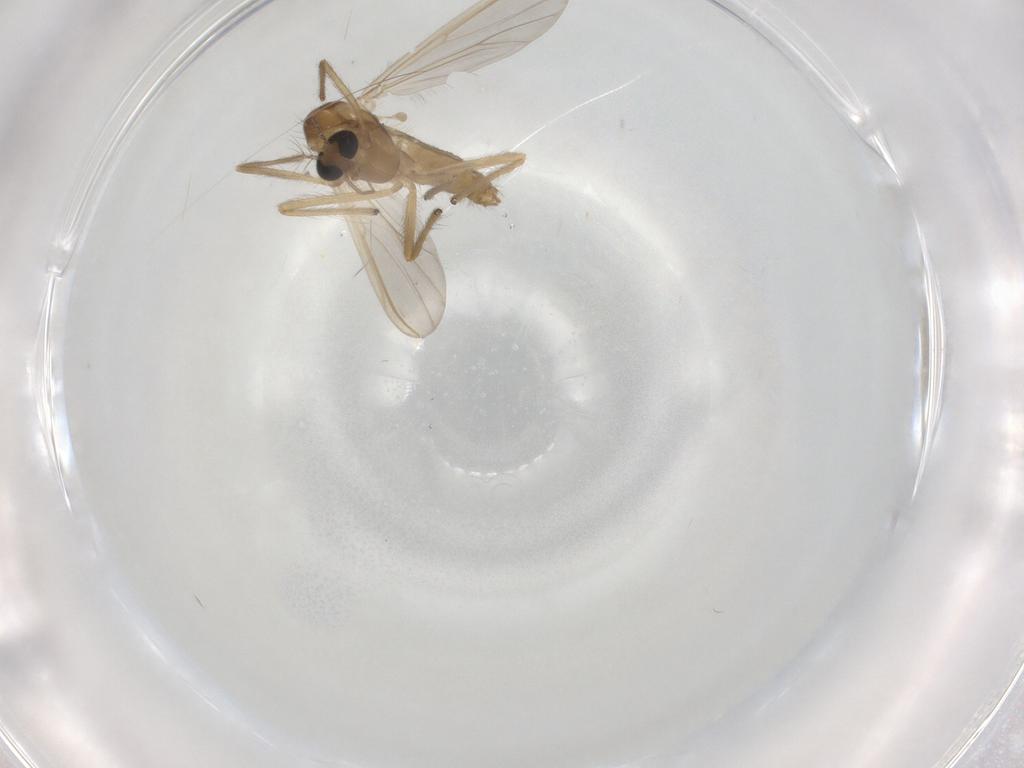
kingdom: Animalia
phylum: Arthropoda
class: Insecta
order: Diptera
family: Chironomidae
